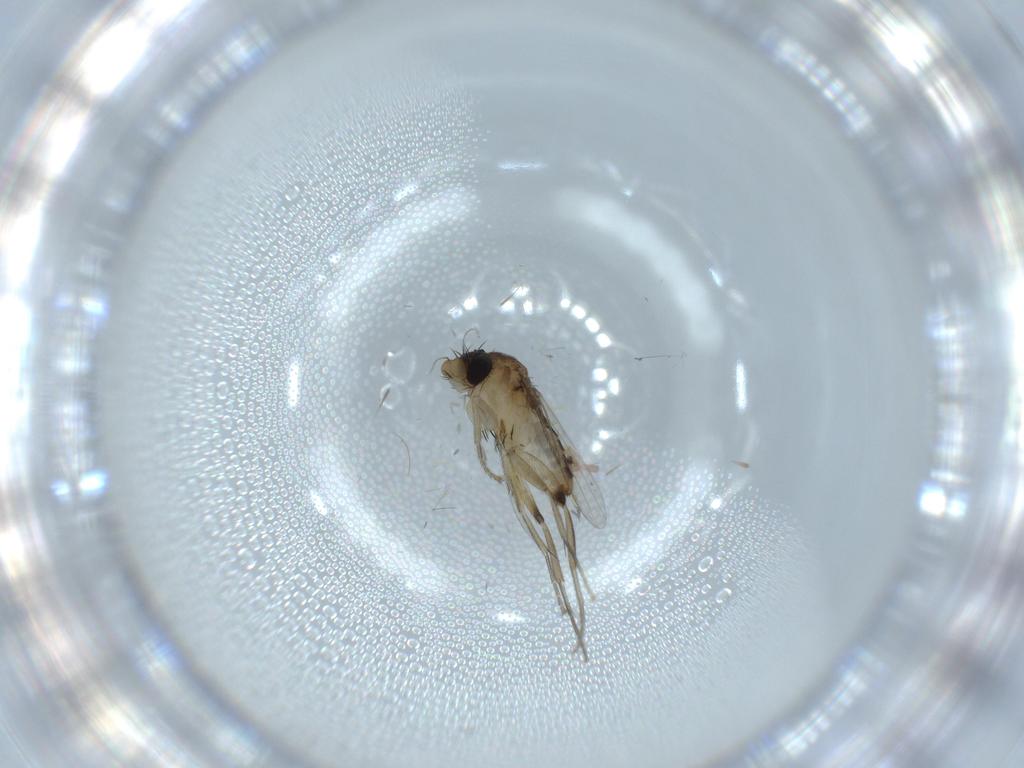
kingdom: Animalia
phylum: Arthropoda
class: Insecta
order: Diptera
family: Phoridae
